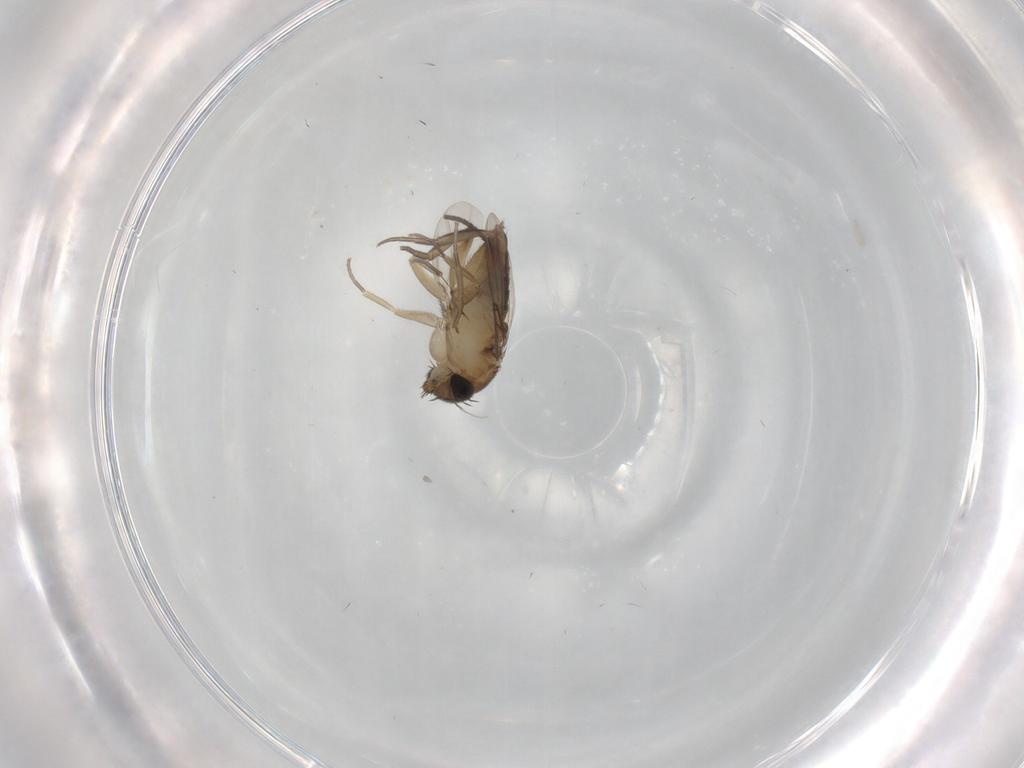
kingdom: Animalia
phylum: Arthropoda
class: Insecta
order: Diptera
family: Phoridae
